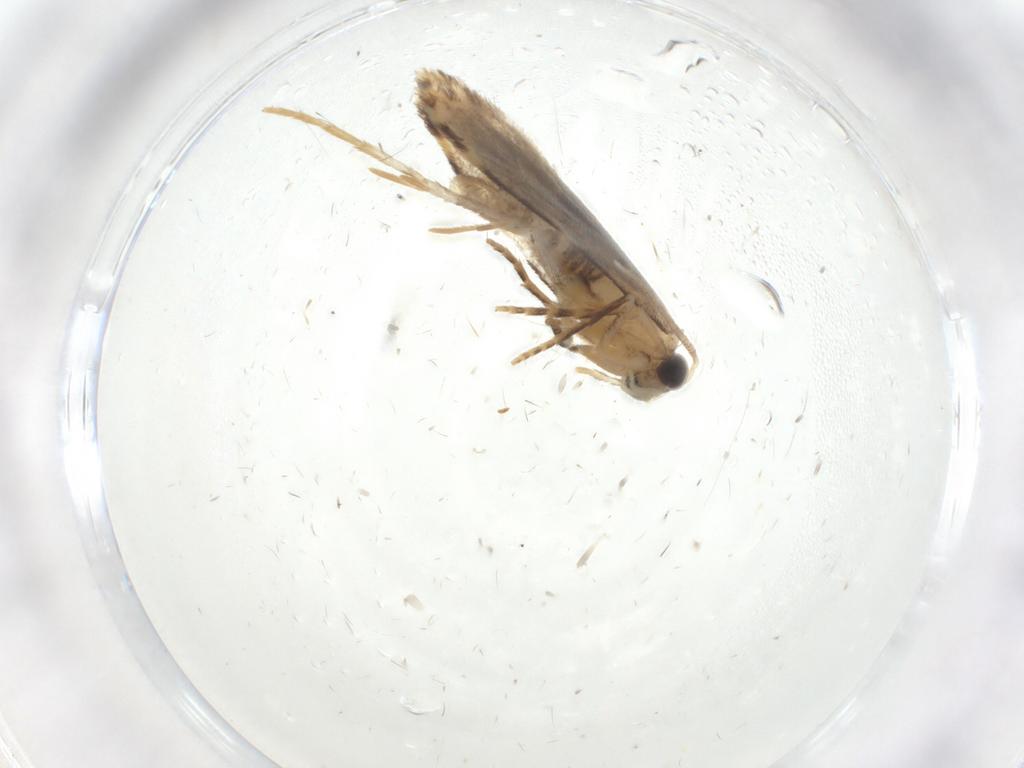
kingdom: Animalia
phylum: Arthropoda
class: Insecta
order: Lepidoptera
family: Tineidae
